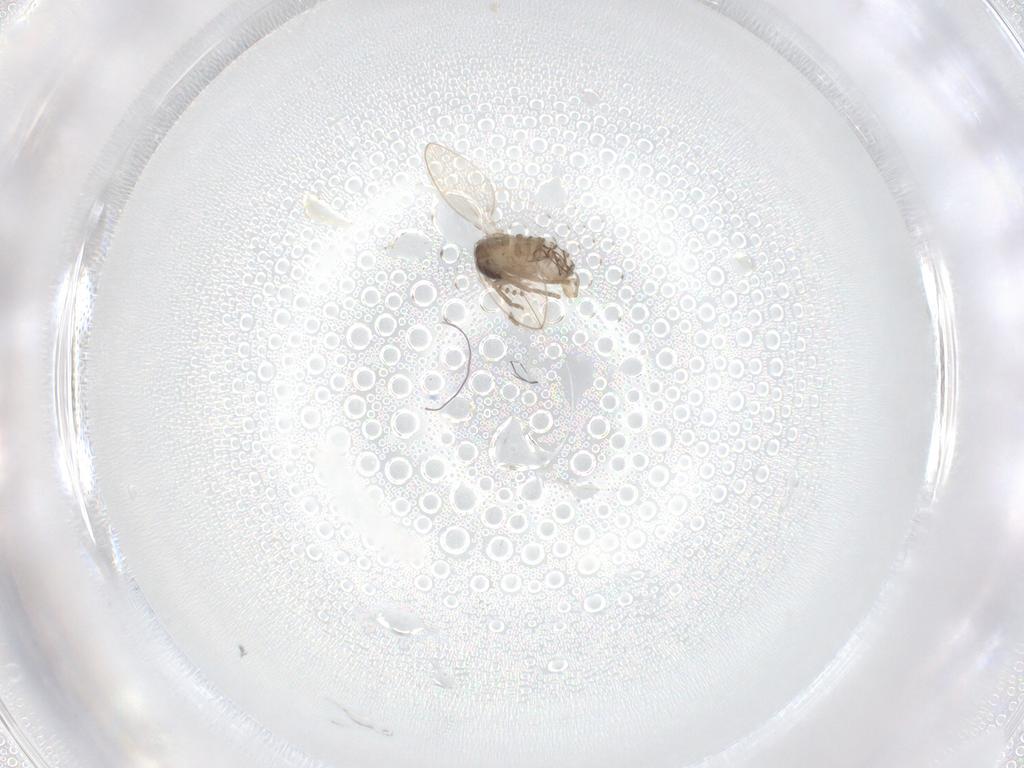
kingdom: Animalia
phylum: Arthropoda
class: Insecta
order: Diptera
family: Psychodidae
